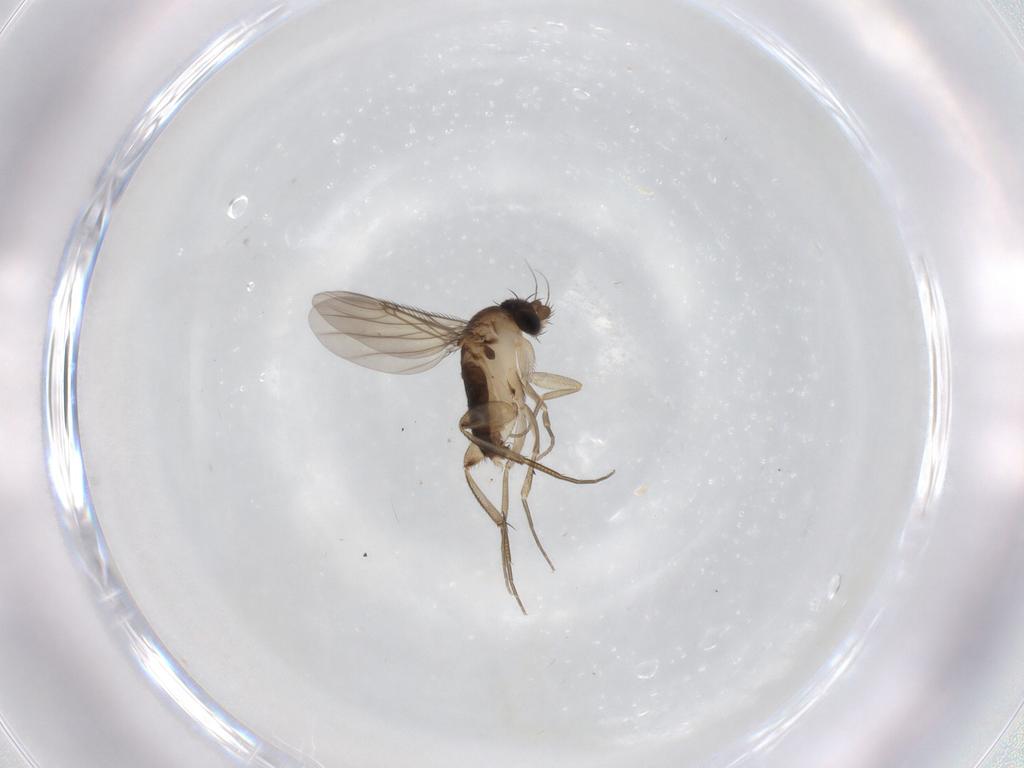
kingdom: Animalia
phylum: Arthropoda
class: Insecta
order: Diptera
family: Phoridae
